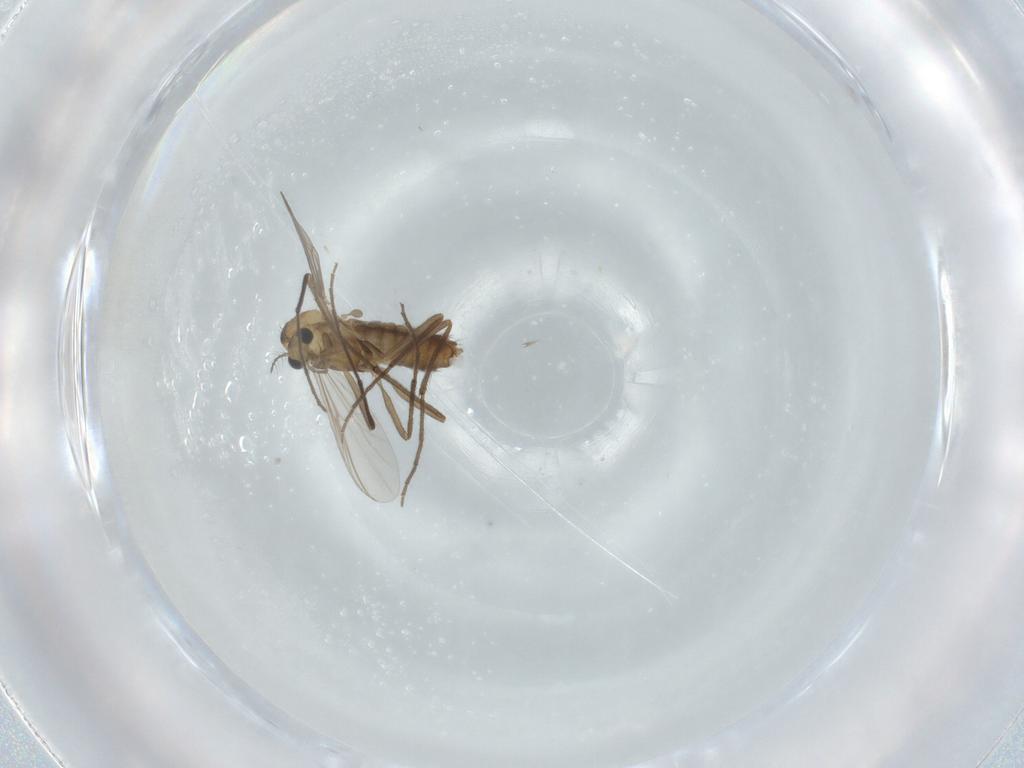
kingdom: Animalia
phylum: Arthropoda
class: Insecta
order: Diptera
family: Chironomidae
